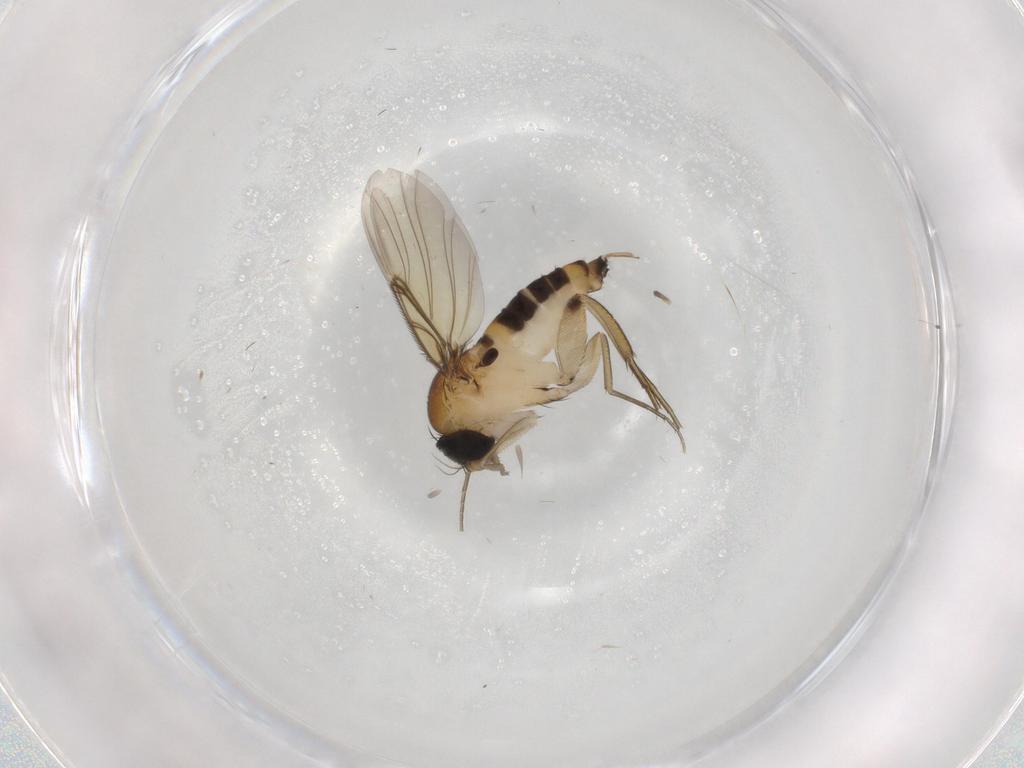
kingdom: Animalia
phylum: Arthropoda
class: Insecta
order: Diptera
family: Phoridae
